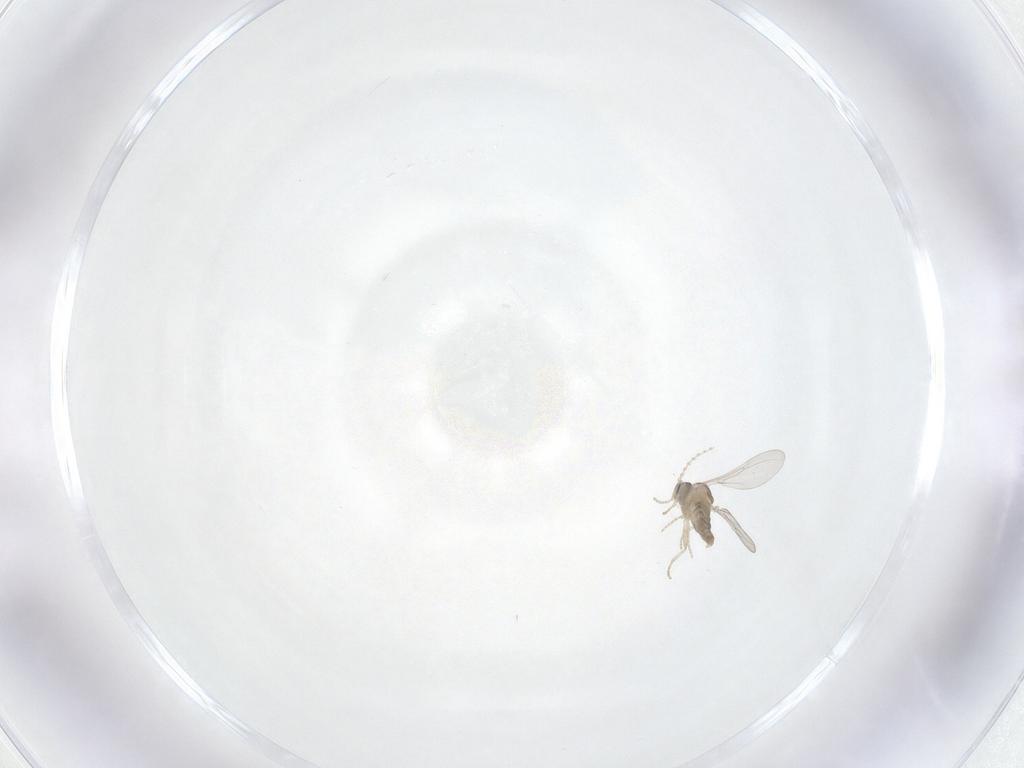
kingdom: Animalia
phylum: Arthropoda
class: Insecta
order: Diptera
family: Cecidomyiidae
